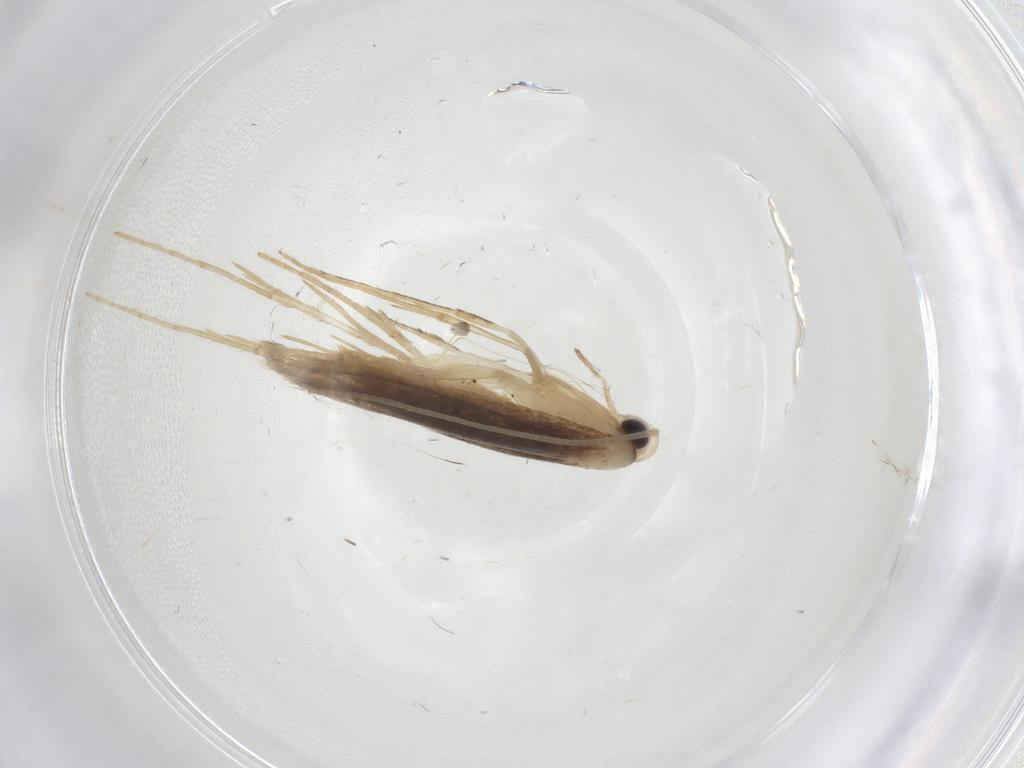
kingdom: Animalia
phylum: Arthropoda
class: Insecta
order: Lepidoptera
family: Gracillariidae
